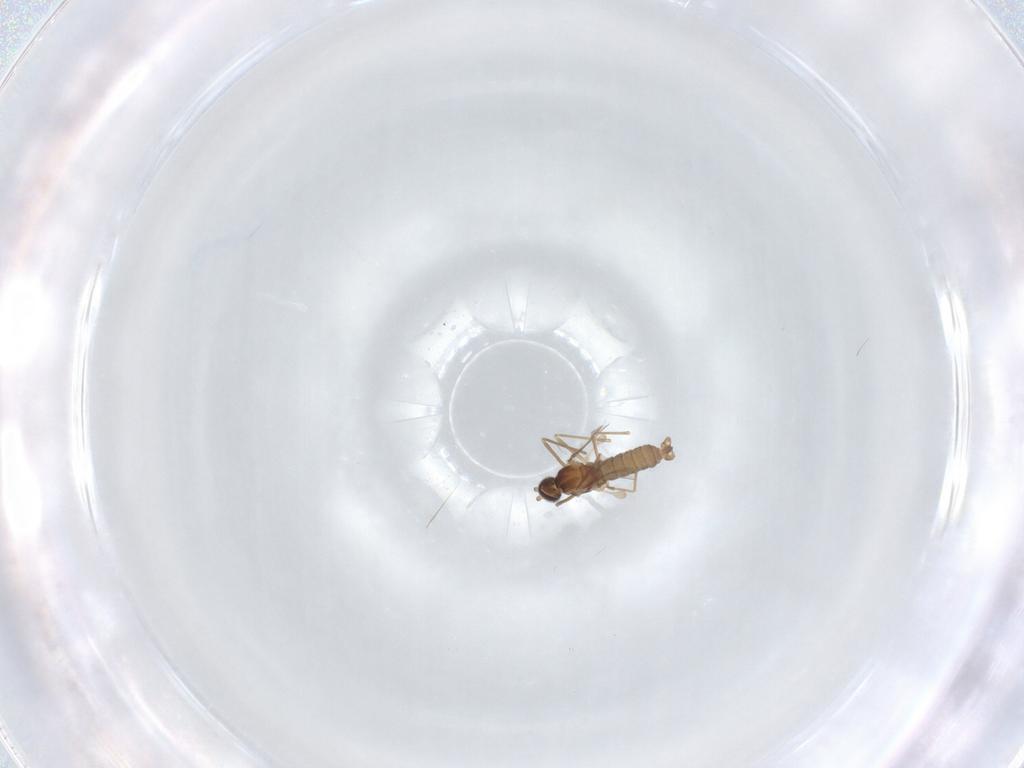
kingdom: Animalia
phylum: Arthropoda
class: Insecta
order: Diptera
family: Cecidomyiidae
